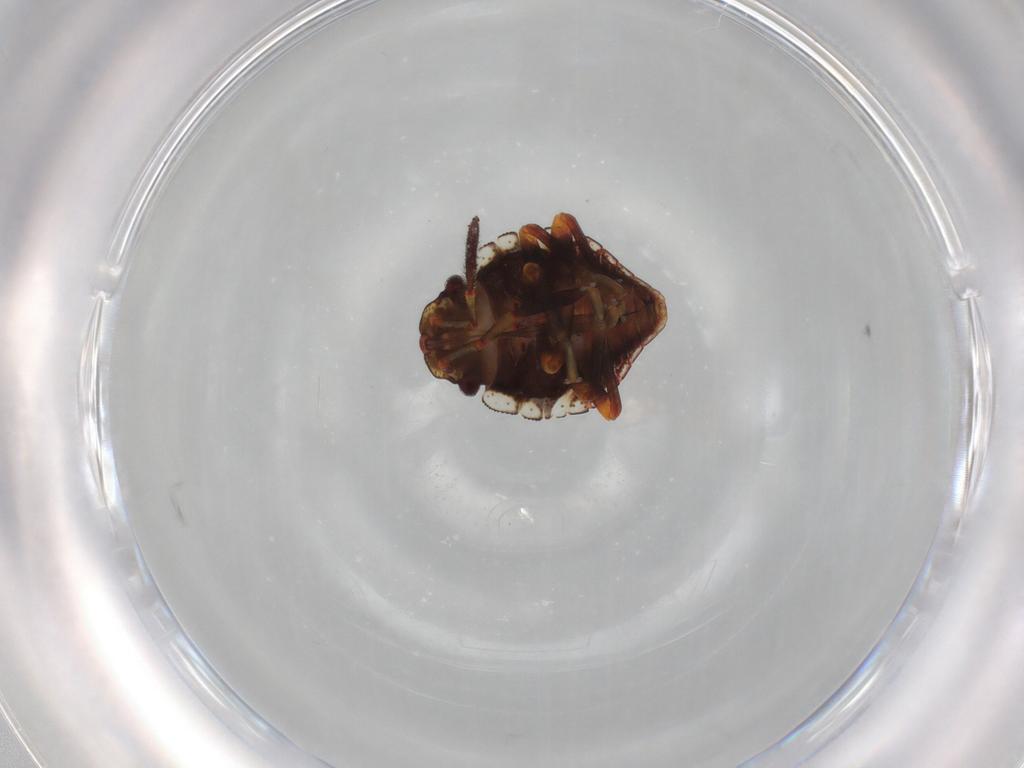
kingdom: Animalia
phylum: Arthropoda
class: Insecta
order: Hemiptera
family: Pentatomidae
